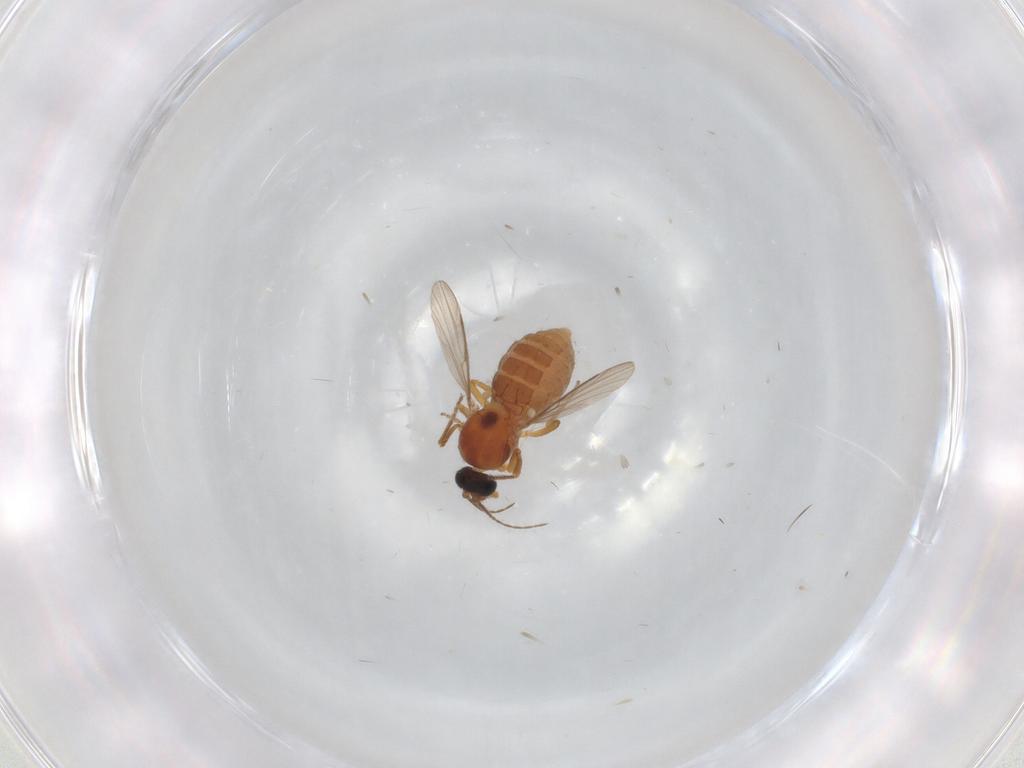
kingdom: Animalia
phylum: Arthropoda
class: Insecta
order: Diptera
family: Ceratopogonidae
